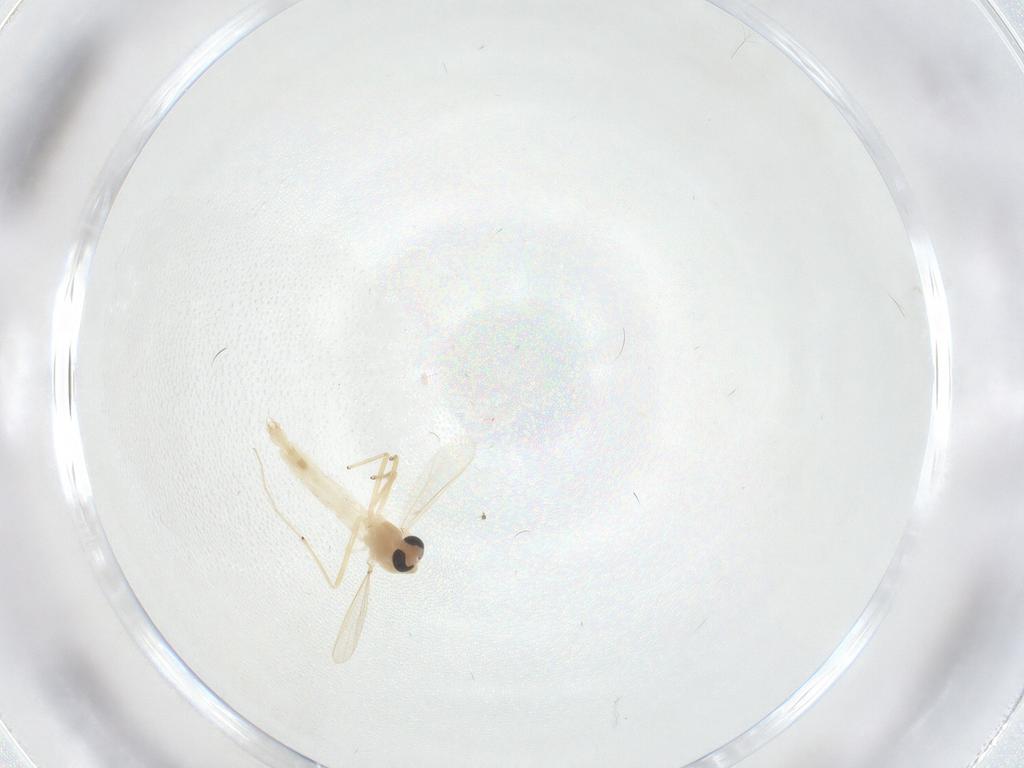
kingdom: Animalia
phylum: Arthropoda
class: Insecta
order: Diptera
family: Chironomidae
